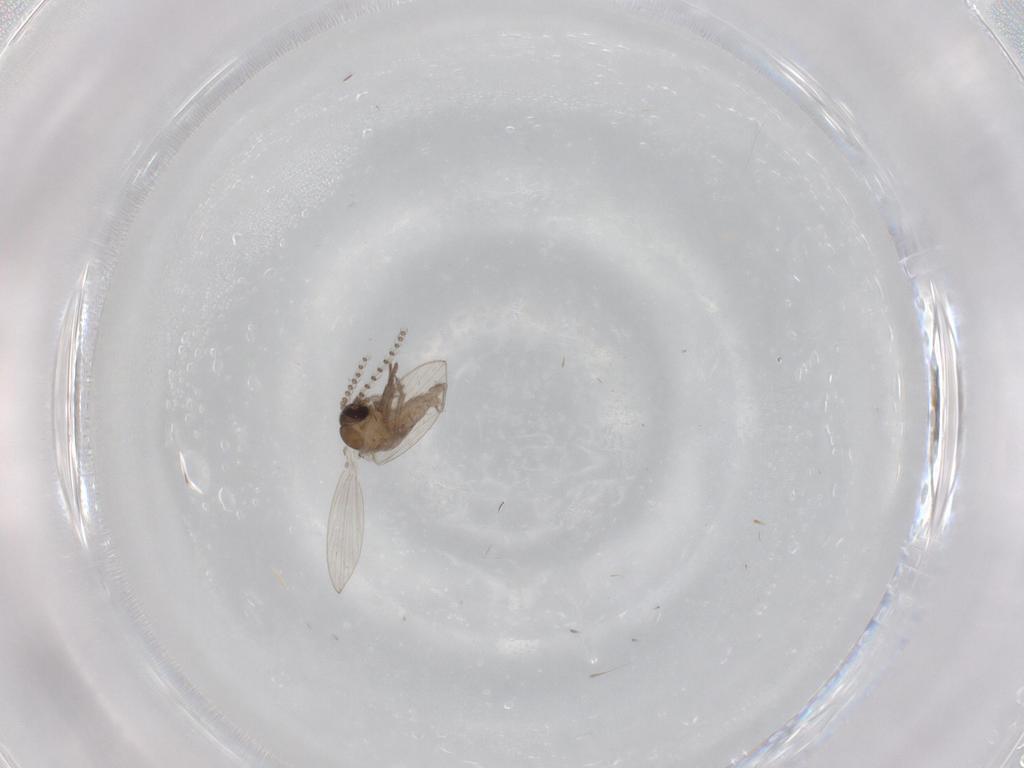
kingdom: Animalia
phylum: Arthropoda
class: Insecta
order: Diptera
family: Psychodidae
